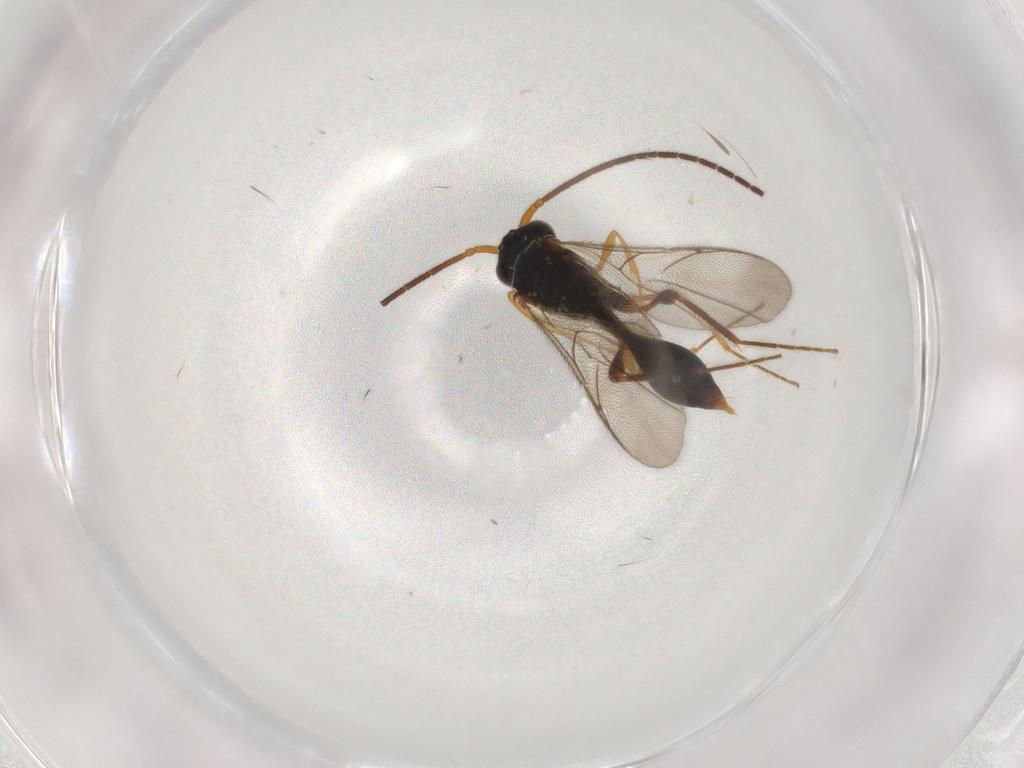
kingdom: Animalia
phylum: Arthropoda
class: Insecta
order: Hymenoptera
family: Diapriidae
